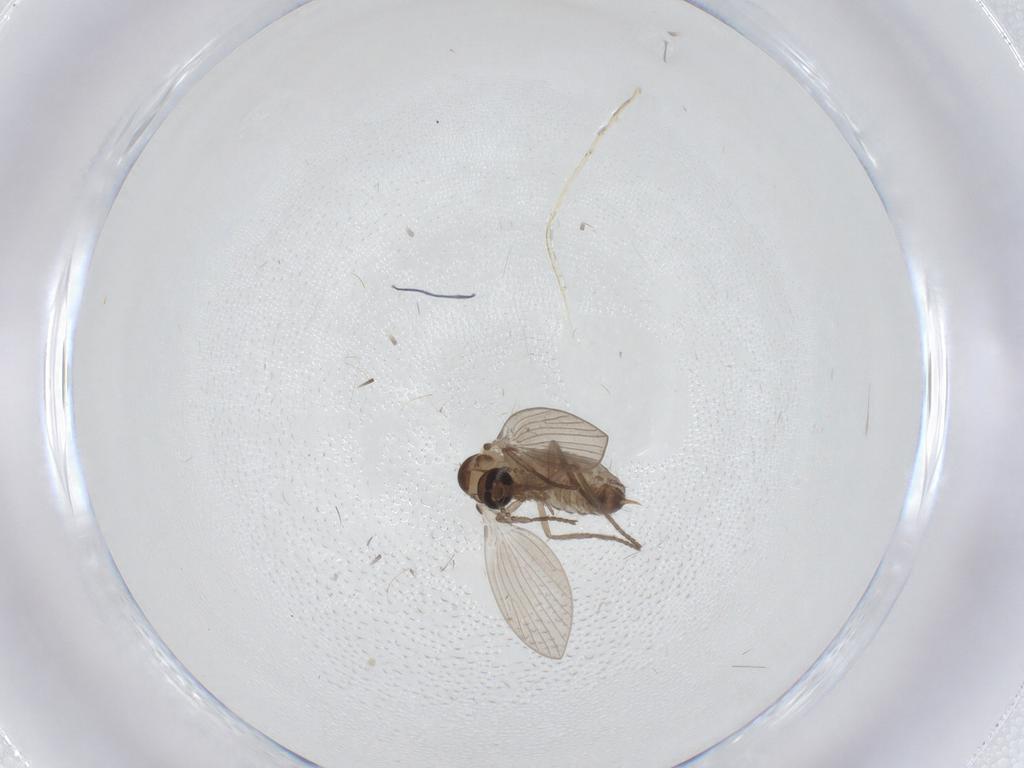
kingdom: Animalia
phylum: Arthropoda
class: Insecta
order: Diptera
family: Psychodidae
